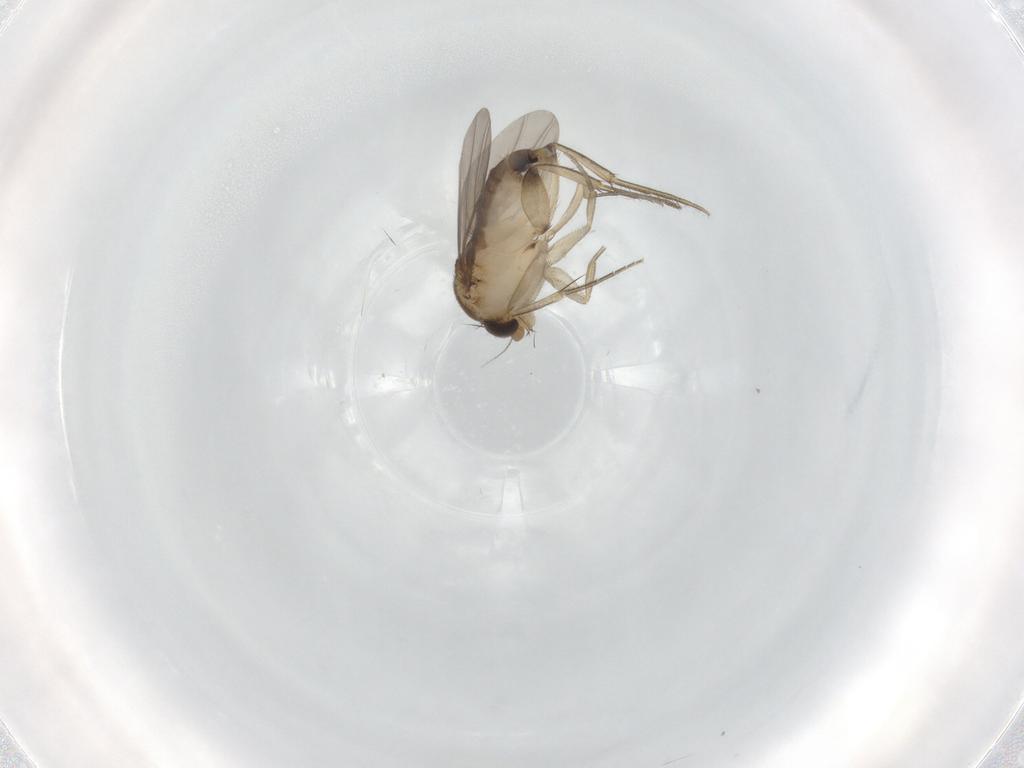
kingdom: Animalia
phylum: Arthropoda
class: Insecta
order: Diptera
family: Phoridae
